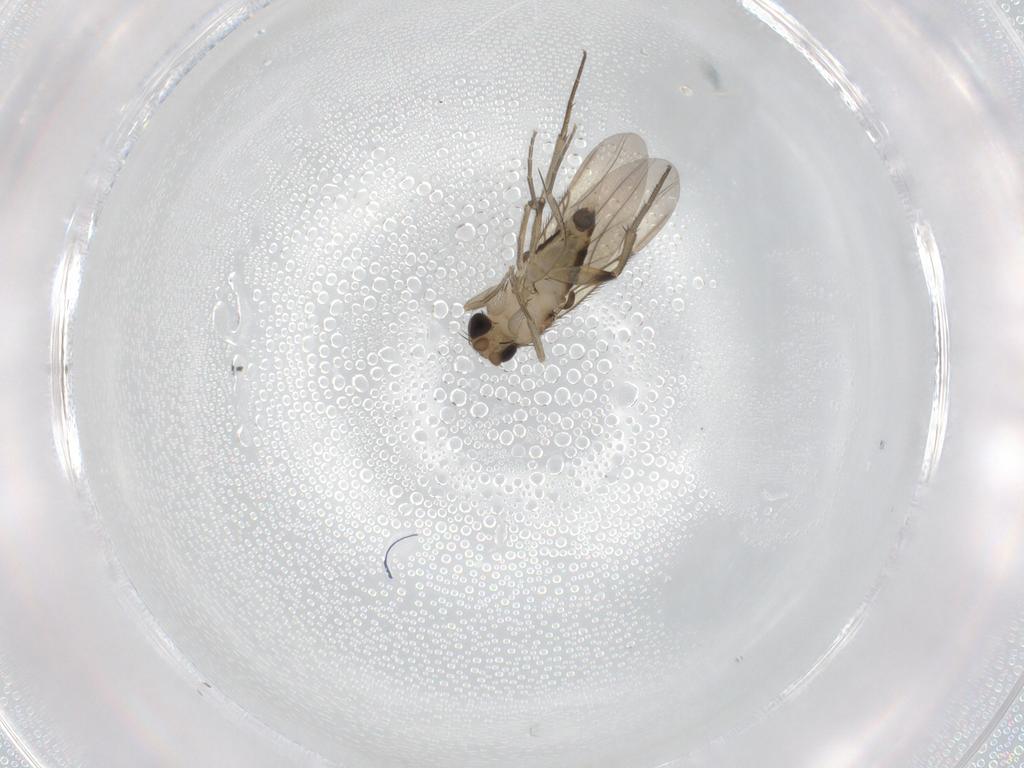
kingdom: Animalia
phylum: Arthropoda
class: Insecta
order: Diptera
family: Phoridae
